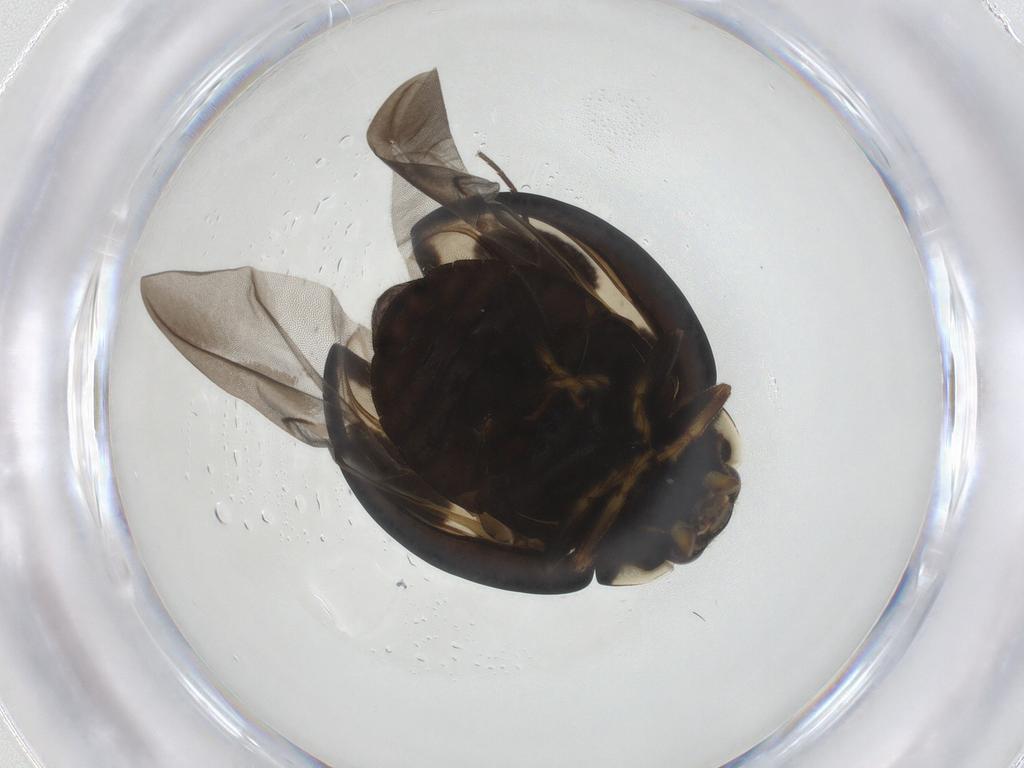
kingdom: Animalia
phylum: Arthropoda
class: Insecta
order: Coleoptera
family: Coccinellidae
